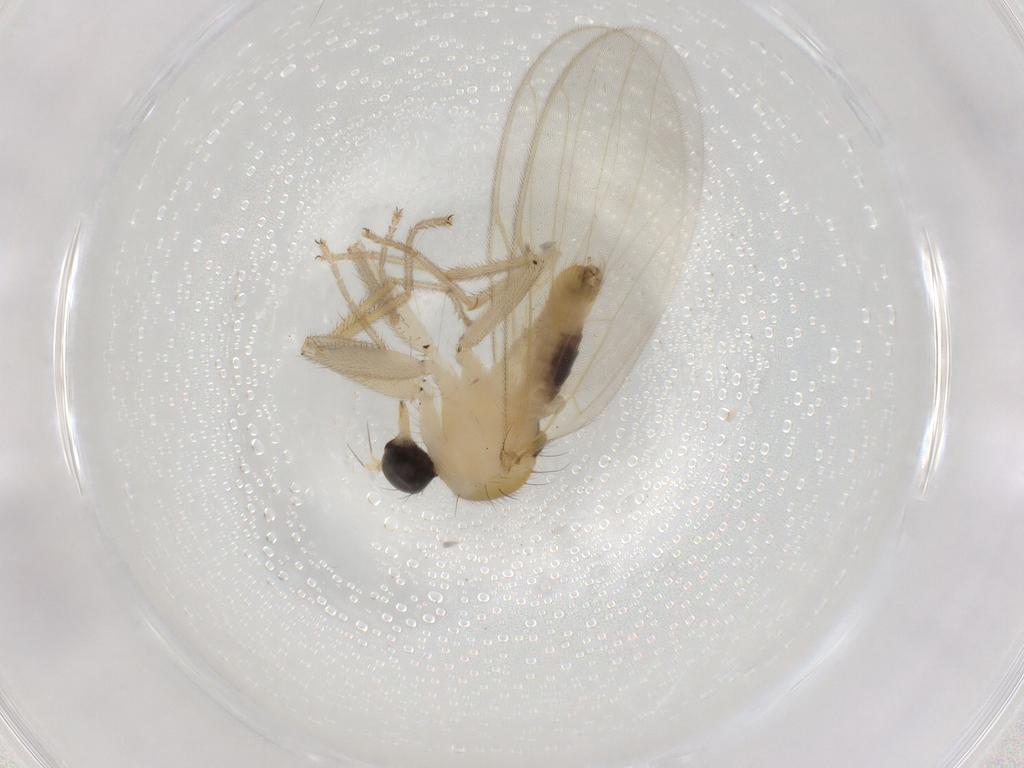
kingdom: Animalia
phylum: Arthropoda
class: Insecta
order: Diptera
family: Hybotidae
